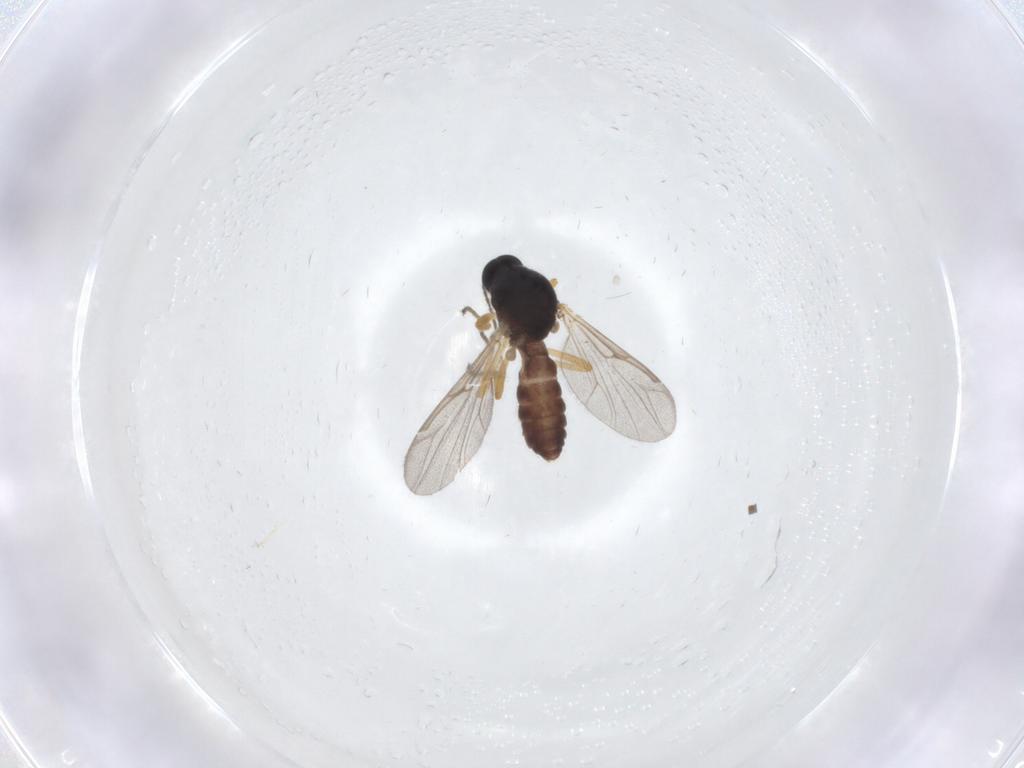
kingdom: Animalia
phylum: Arthropoda
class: Insecta
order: Diptera
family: Ceratopogonidae
